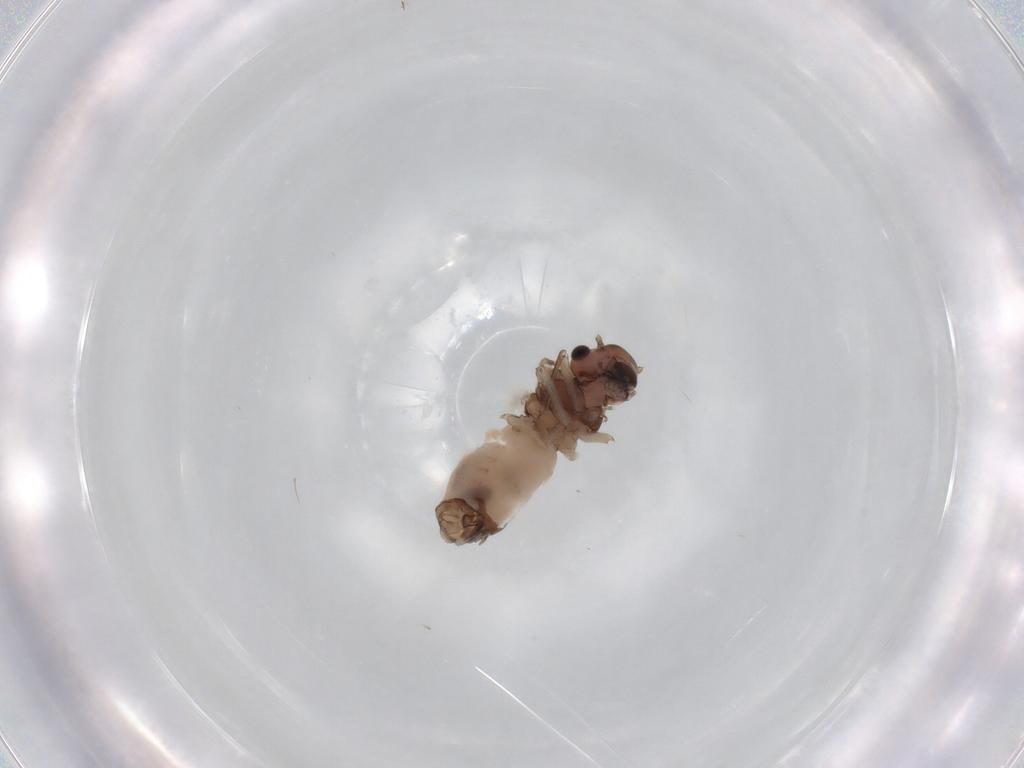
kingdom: Animalia
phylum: Arthropoda
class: Insecta
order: Psocodea
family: Peripsocidae
